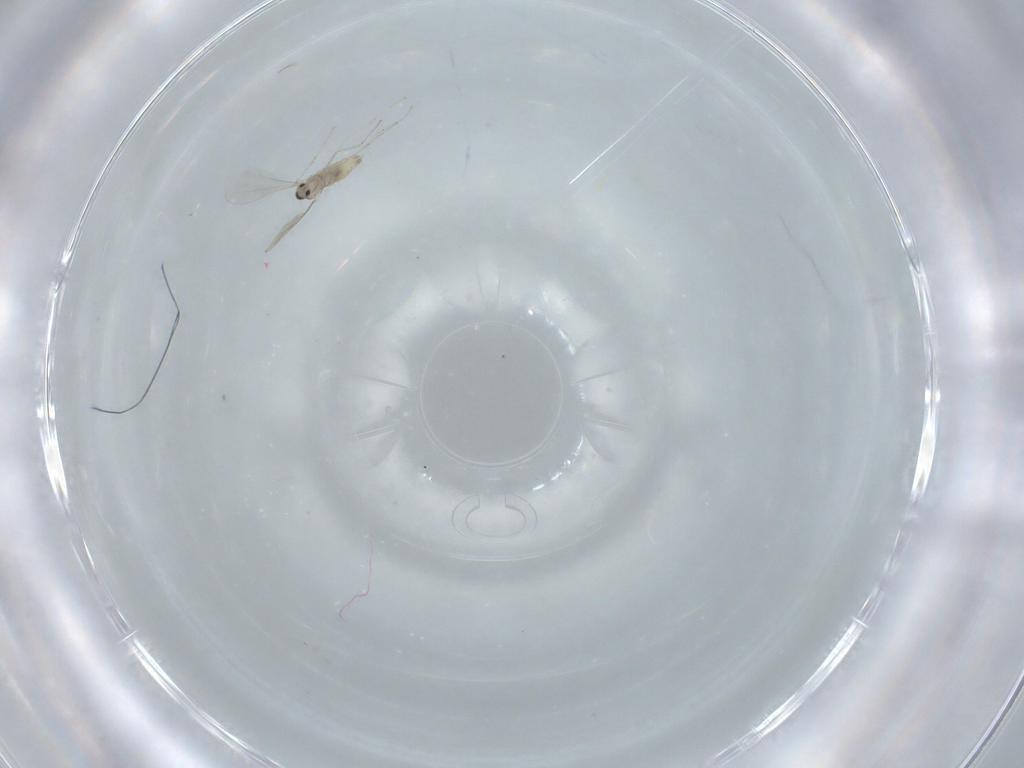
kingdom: Animalia
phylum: Arthropoda
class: Insecta
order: Diptera
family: Cecidomyiidae
